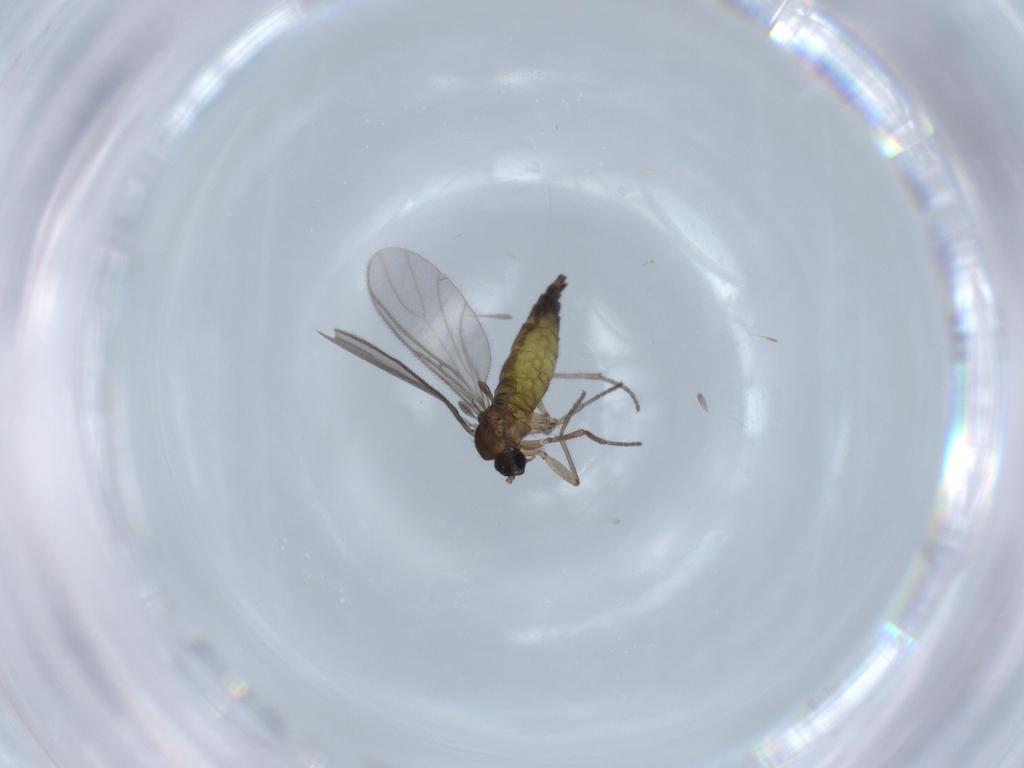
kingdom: Animalia
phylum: Arthropoda
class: Insecta
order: Diptera
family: Sciaridae
